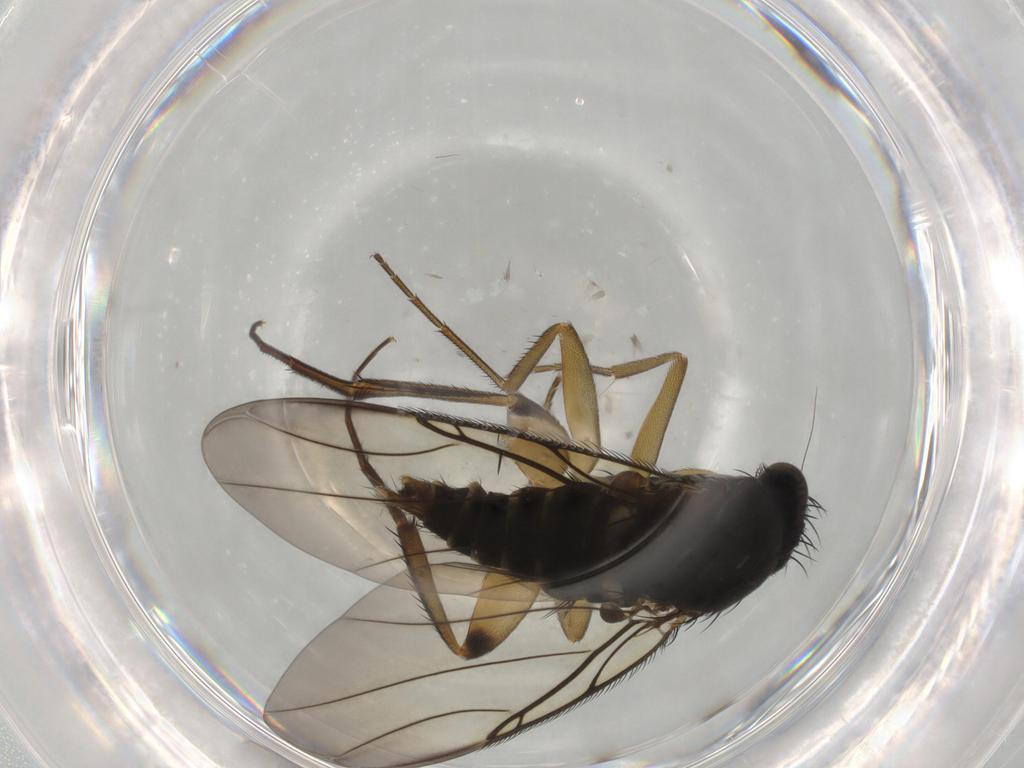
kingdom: Animalia
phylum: Arthropoda
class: Insecta
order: Diptera
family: Phoridae
